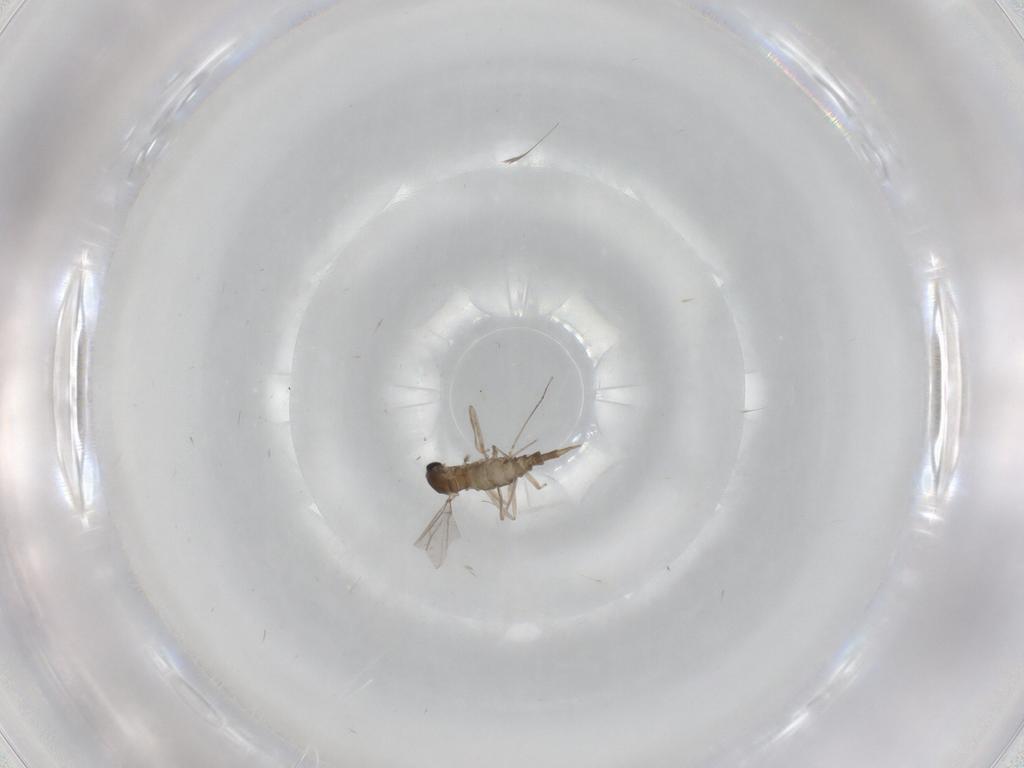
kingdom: Animalia
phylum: Arthropoda
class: Insecta
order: Diptera
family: Cecidomyiidae
